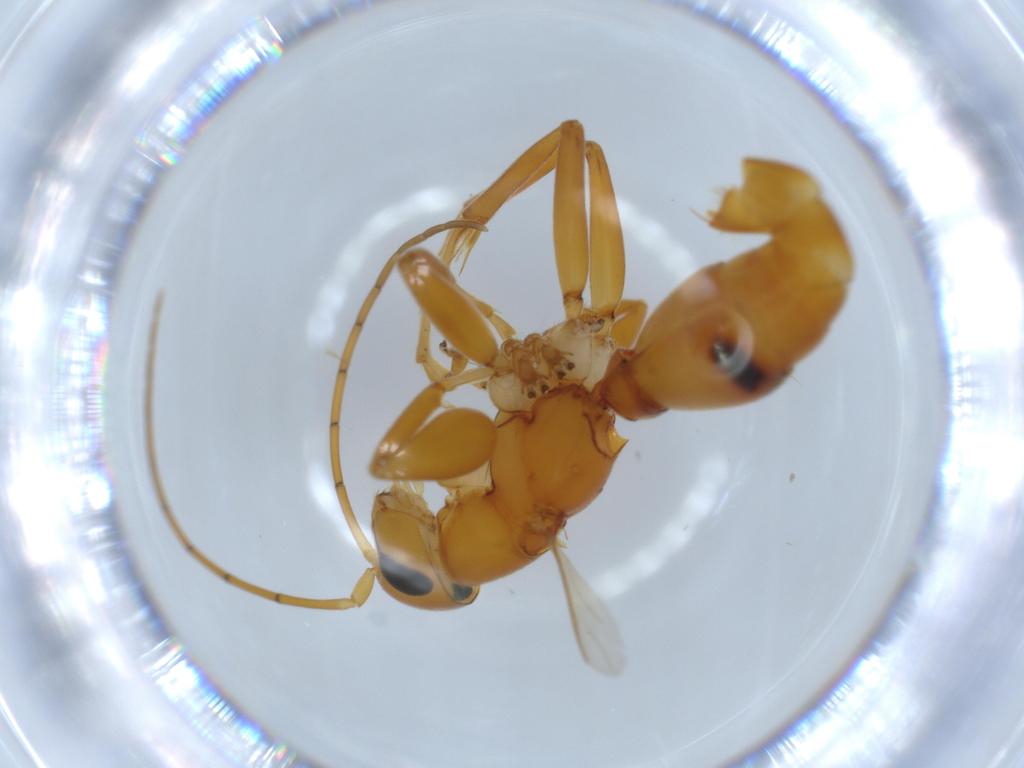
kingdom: Animalia
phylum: Arthropoda
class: Insecta
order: Hymenoptera
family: Rhopalosomatidae
